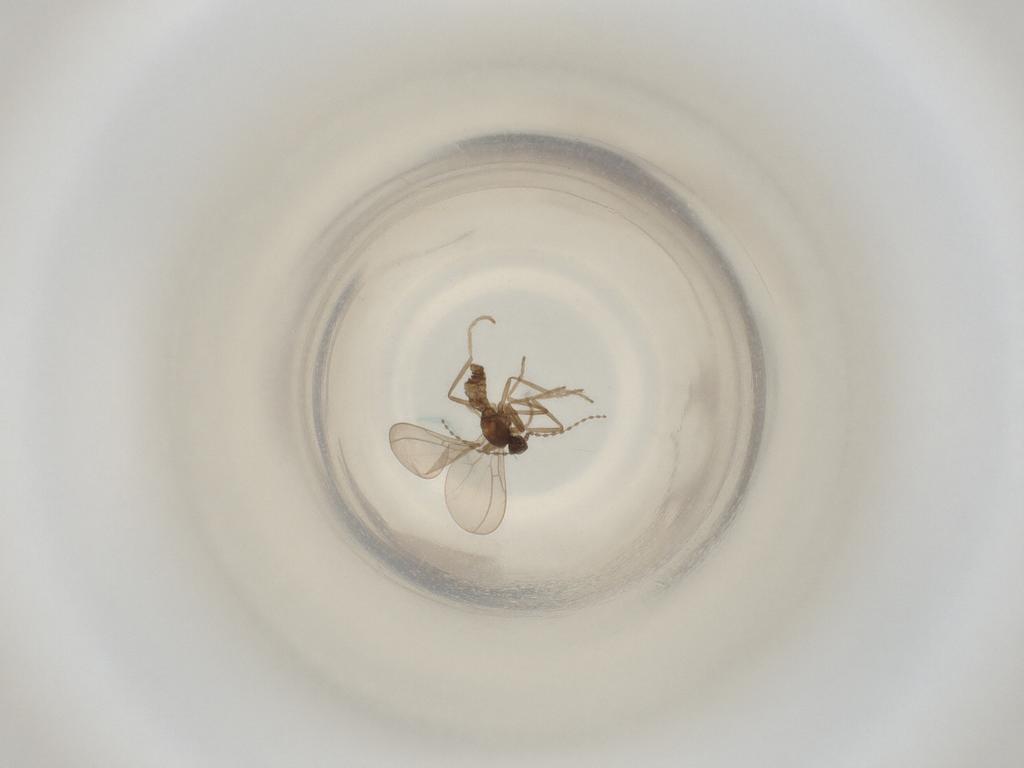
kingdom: Animalia
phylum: Arthropoda
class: Insecta
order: Diptera
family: Cecidomyiidae
